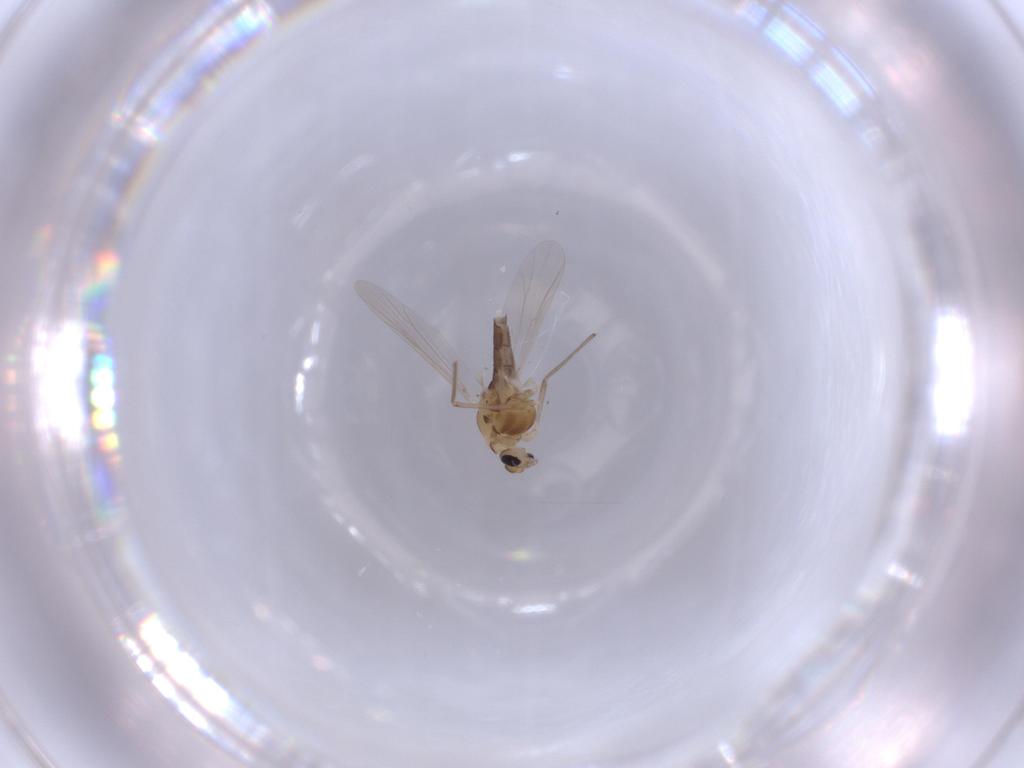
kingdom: Animalia
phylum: Arthropoda
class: Insecta
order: Diptera
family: Chironomidae
